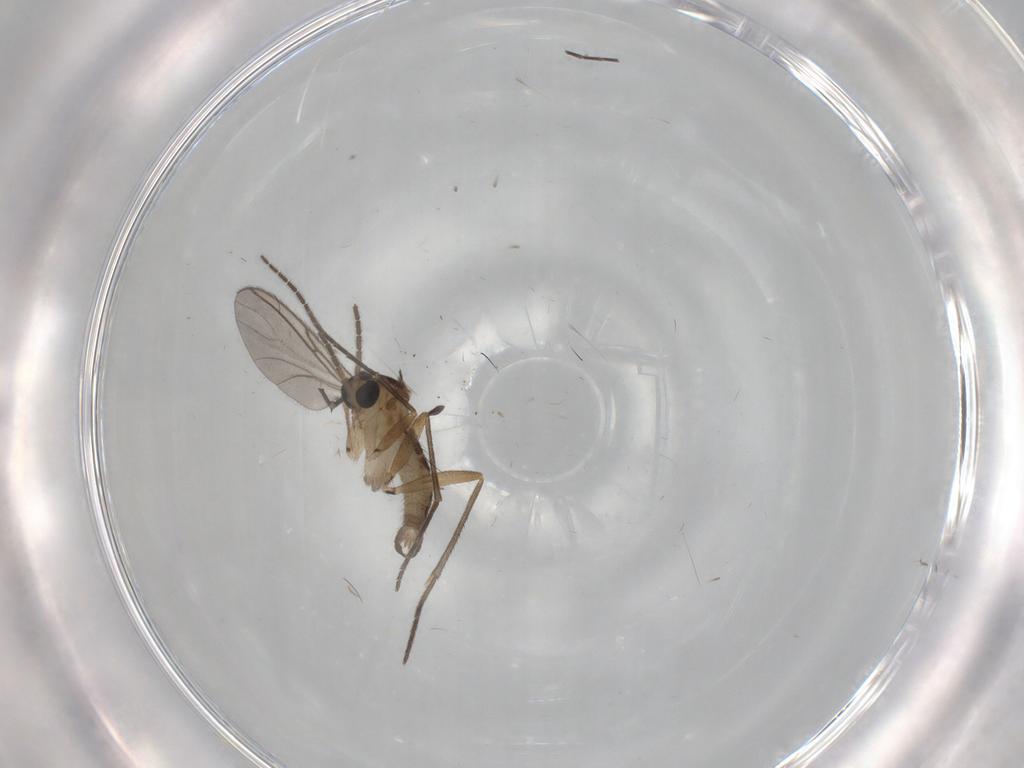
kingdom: Animalia
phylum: Arthropoda
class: Insecta
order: Diptera
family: Sciaridae
